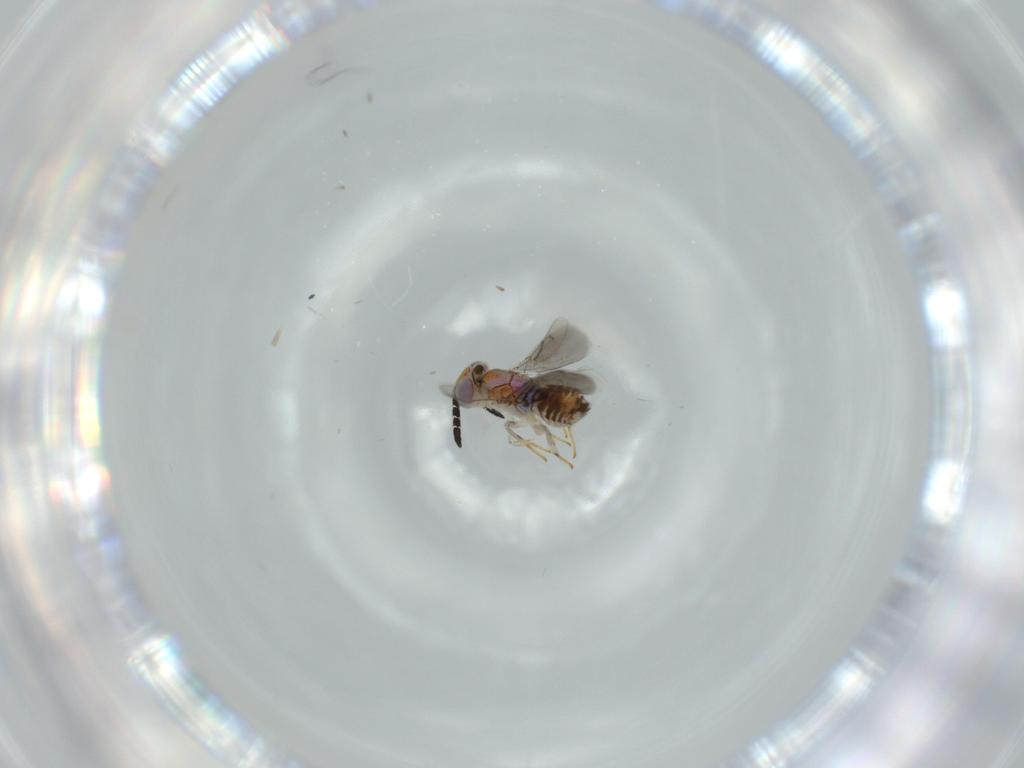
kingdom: Animalia
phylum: Arthropoda
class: Insecta
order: Hymenoptera
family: Aphelinidae
